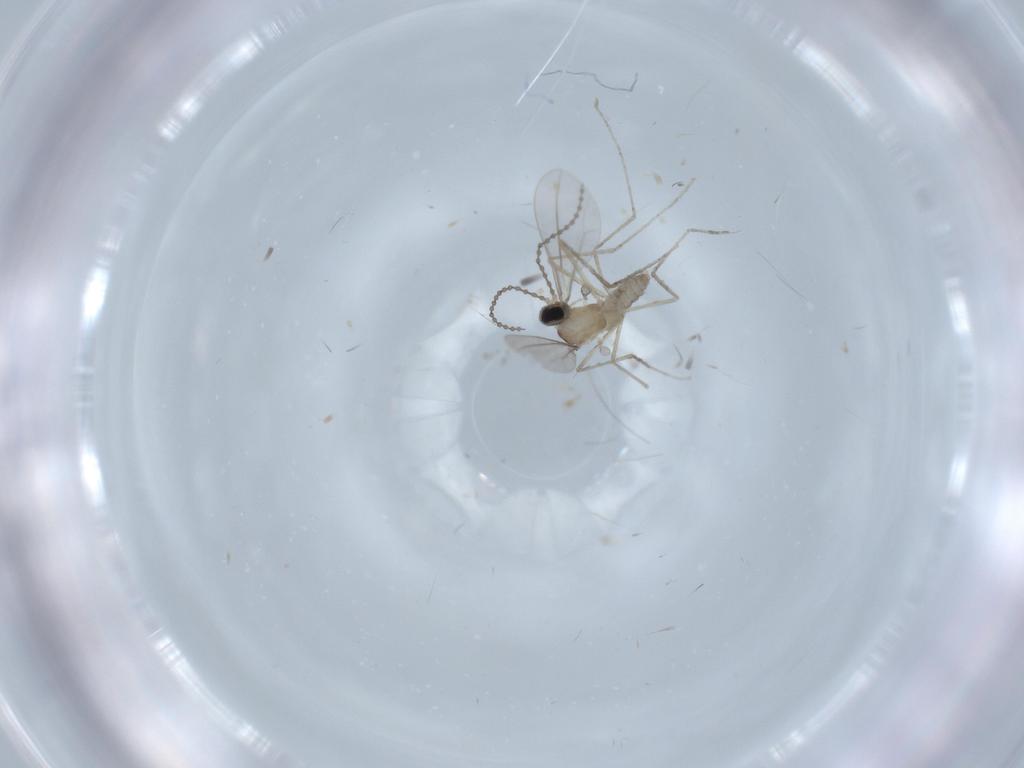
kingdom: Animalia
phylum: Arthropoda
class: Insecta
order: Diptera
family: Cecidomyiidae
